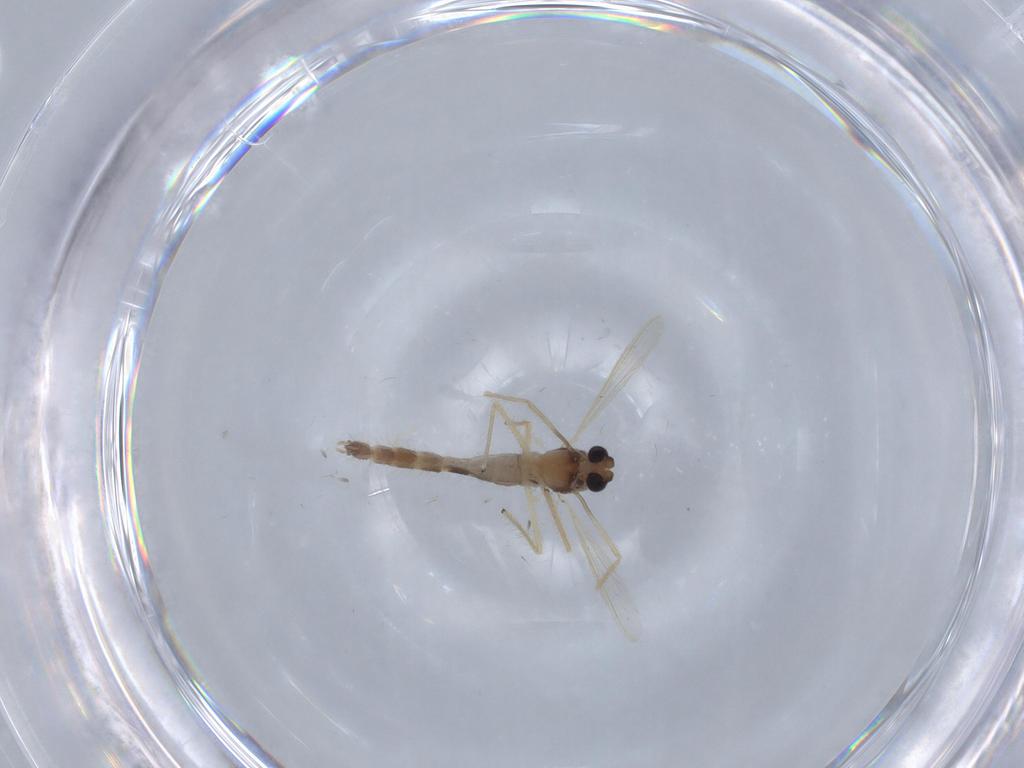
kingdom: Animalia
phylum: Arthropoda
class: Insecta
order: Diptera
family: Chironomidae
